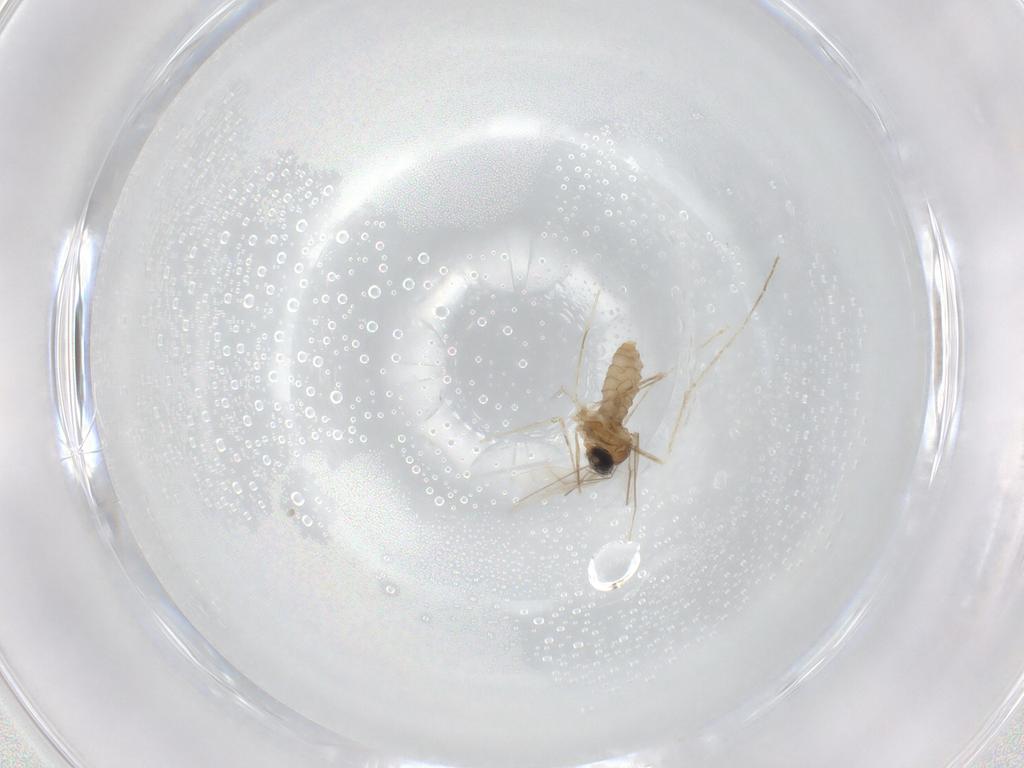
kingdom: Animalia
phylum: Arthropoda
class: Insecta
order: Diptera
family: Cecidomyiidae
